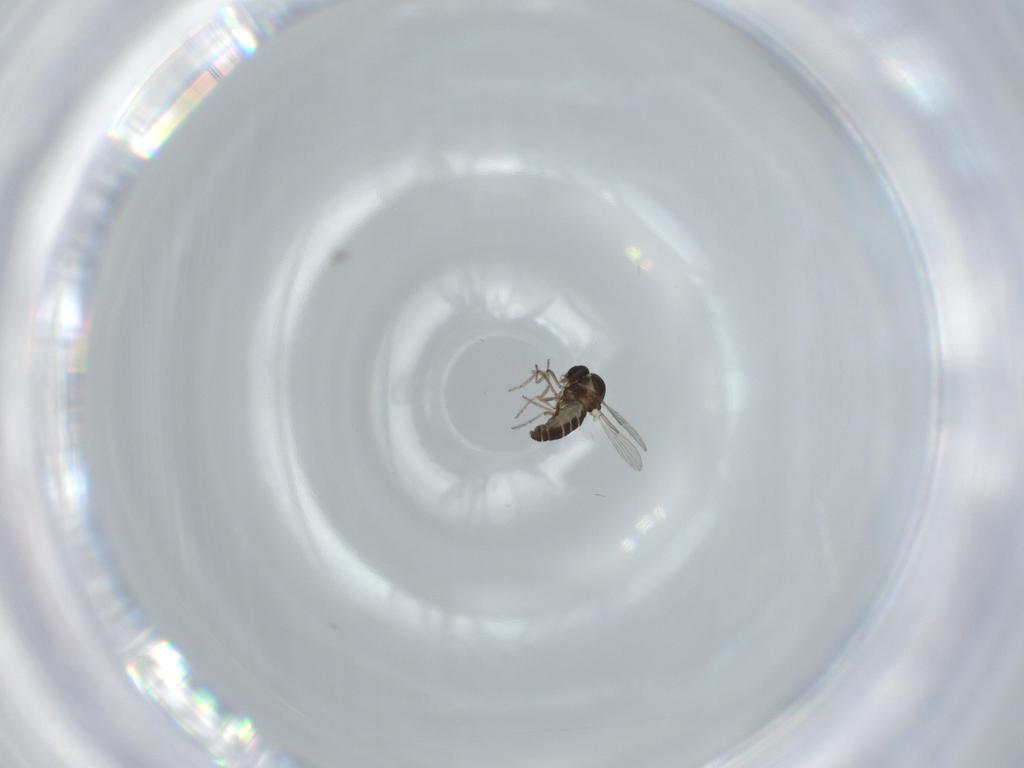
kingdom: Animalia
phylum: Arthropoda
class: Insecta
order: Diptera
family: Ceratopogonidae
